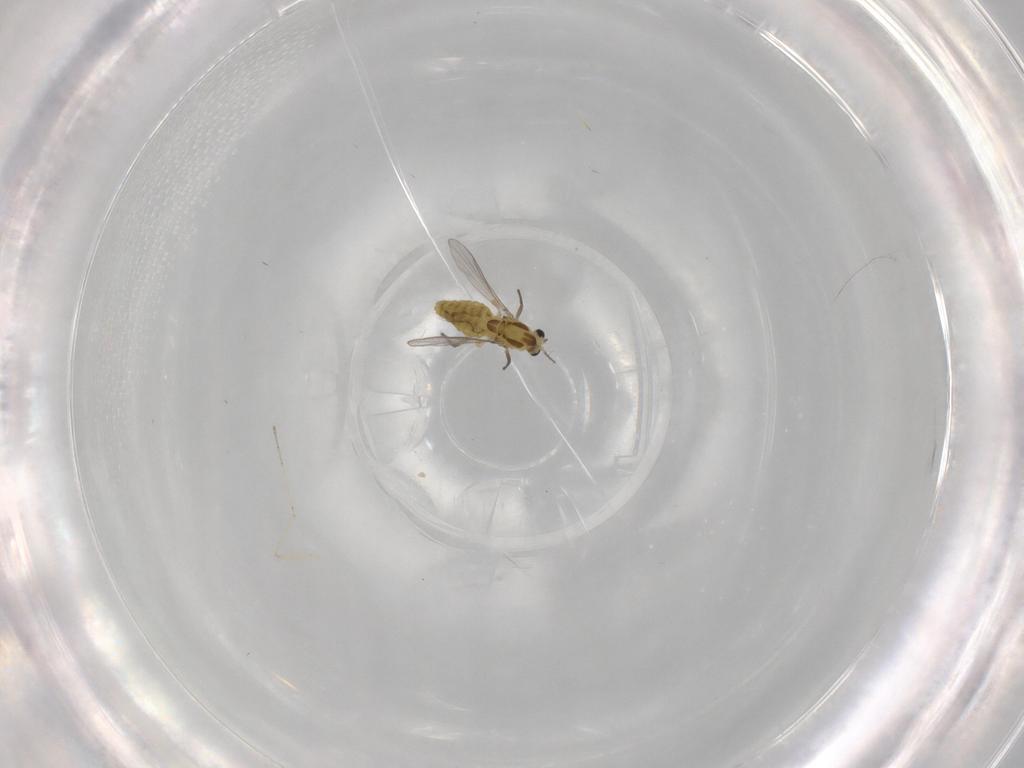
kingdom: Animalia
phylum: Arthropoda
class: Insecta
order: Diptera
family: Chironomidae
